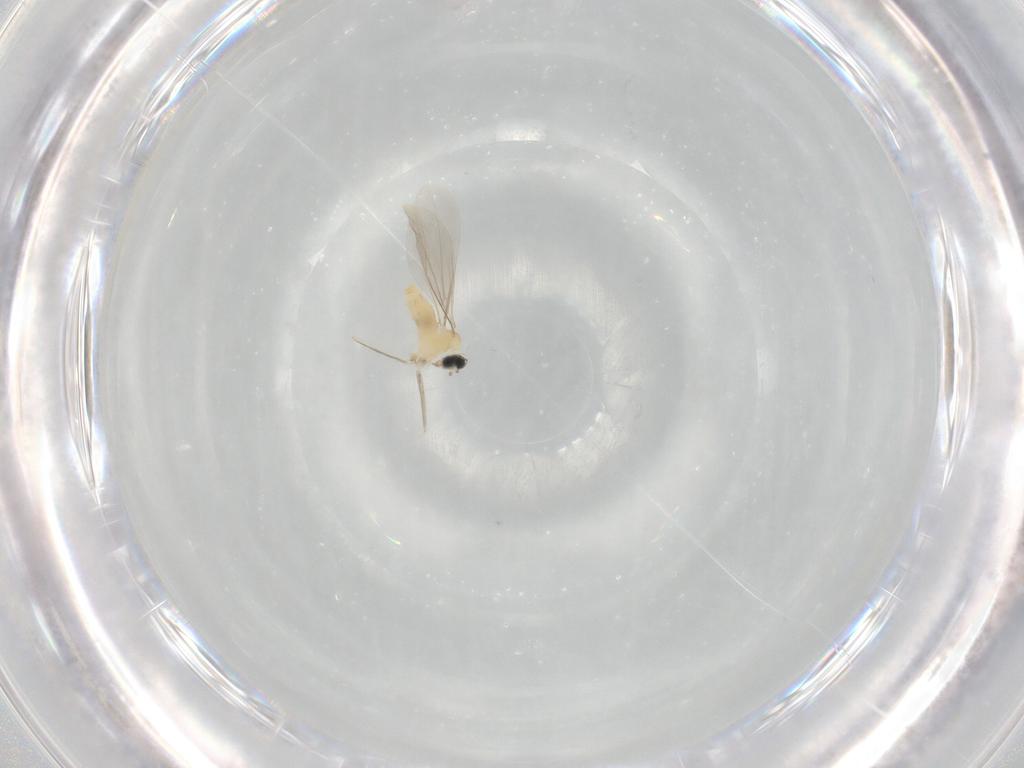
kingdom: Animalia
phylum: Arthropoda
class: Insecta
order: Diptera
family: Cecidomyiidae
